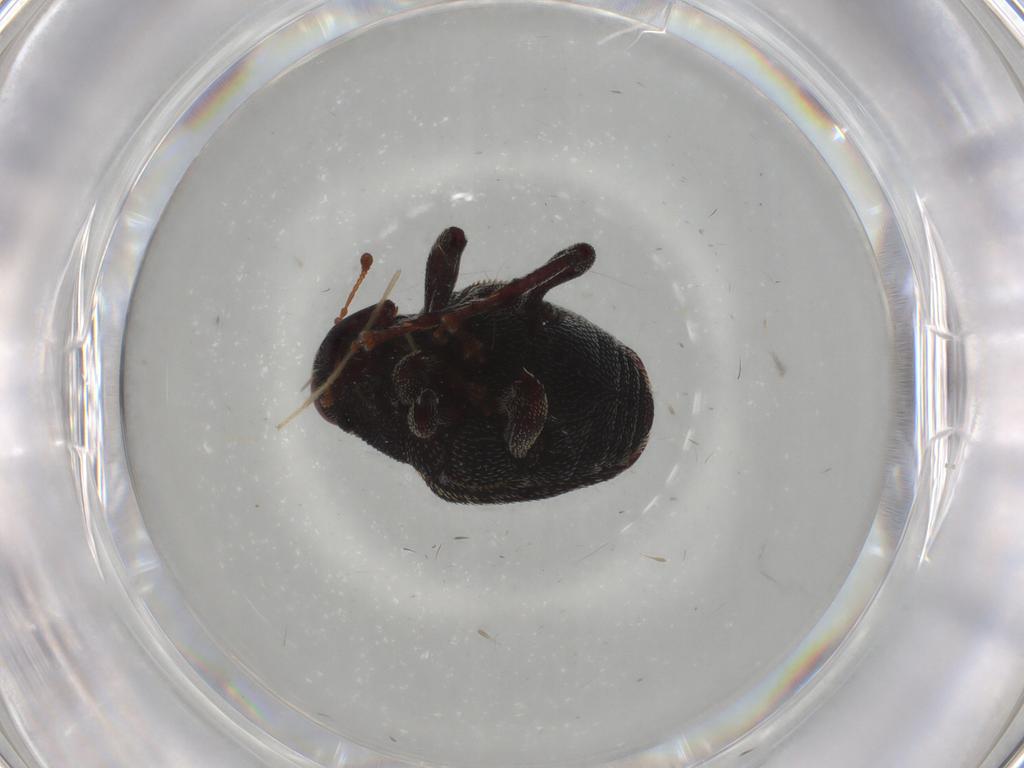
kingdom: Animalia
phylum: Arthropoda
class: Insecta
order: Coleoptera
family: Curculionidae
